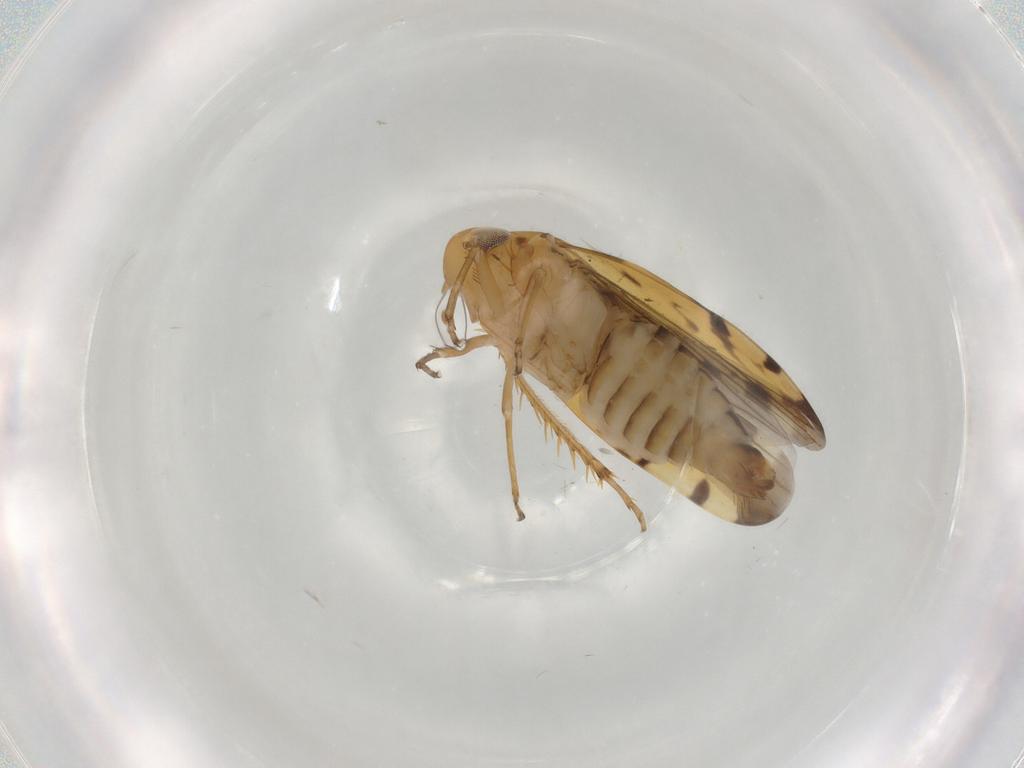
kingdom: Animalia
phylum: Arthropoda
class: Insecta
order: Hemiptera
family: Cicadellidae
